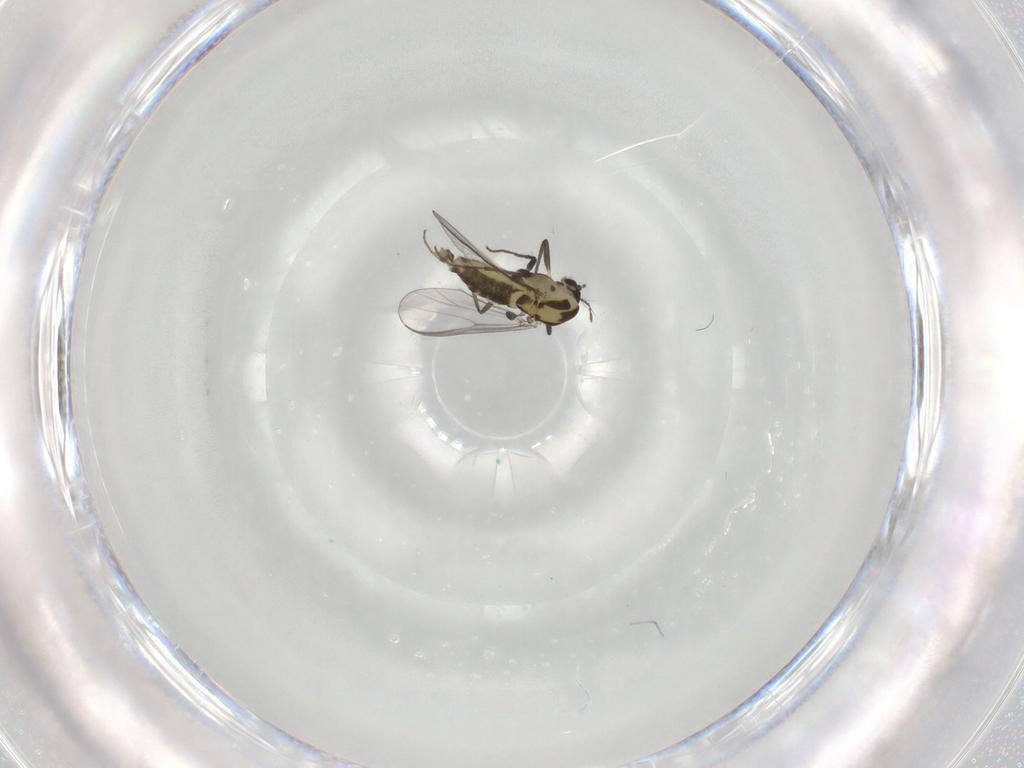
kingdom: Animalia
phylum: Arthropoda
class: Insecta
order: Diptera
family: Chironomidae
